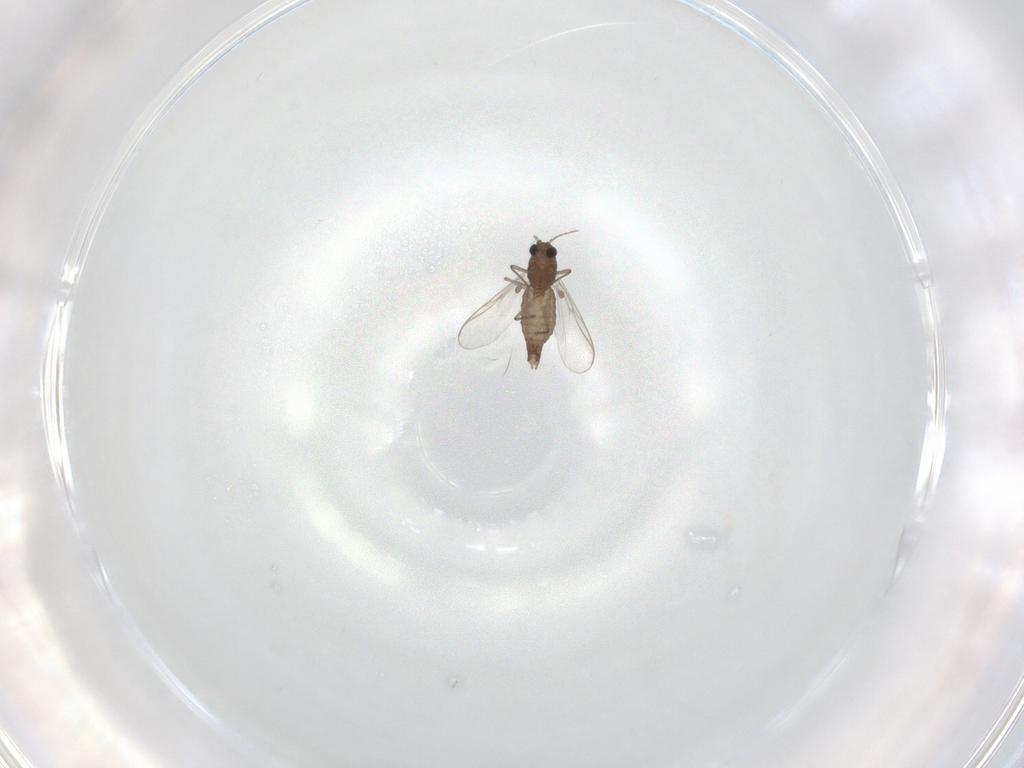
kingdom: Animalia
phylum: Arthropoda
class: Insecta
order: Diptera
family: Chironomidae
